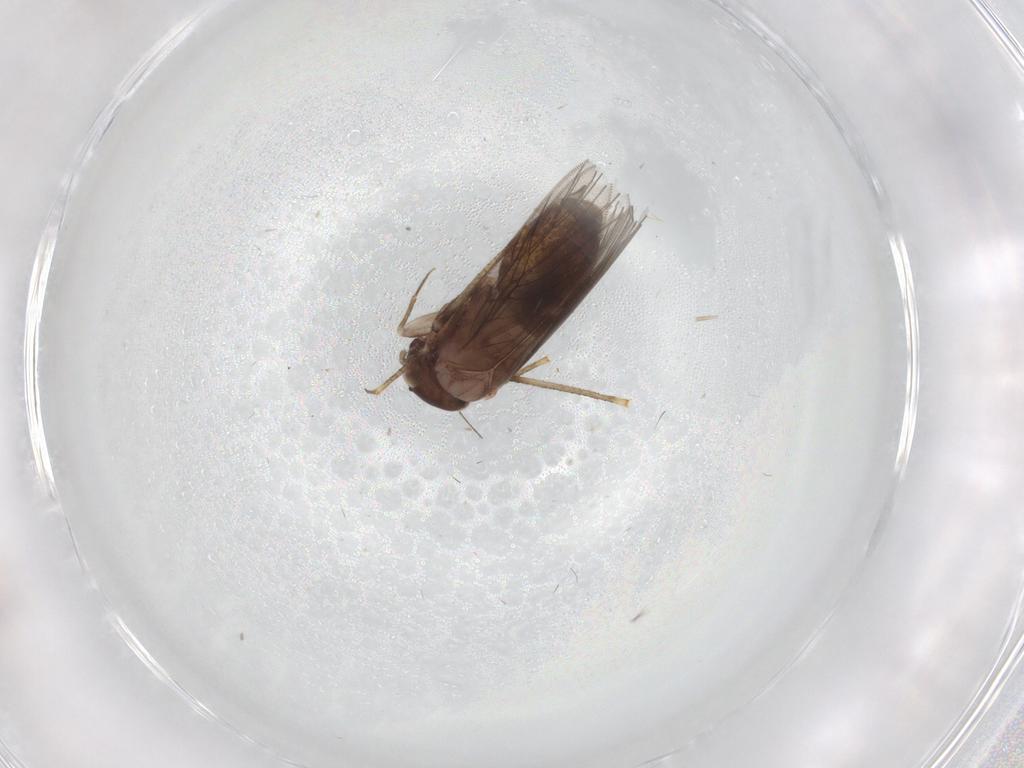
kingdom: Animalia
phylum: Arthropoda
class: Insecta
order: Psocodea
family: Lepidopsocidae
